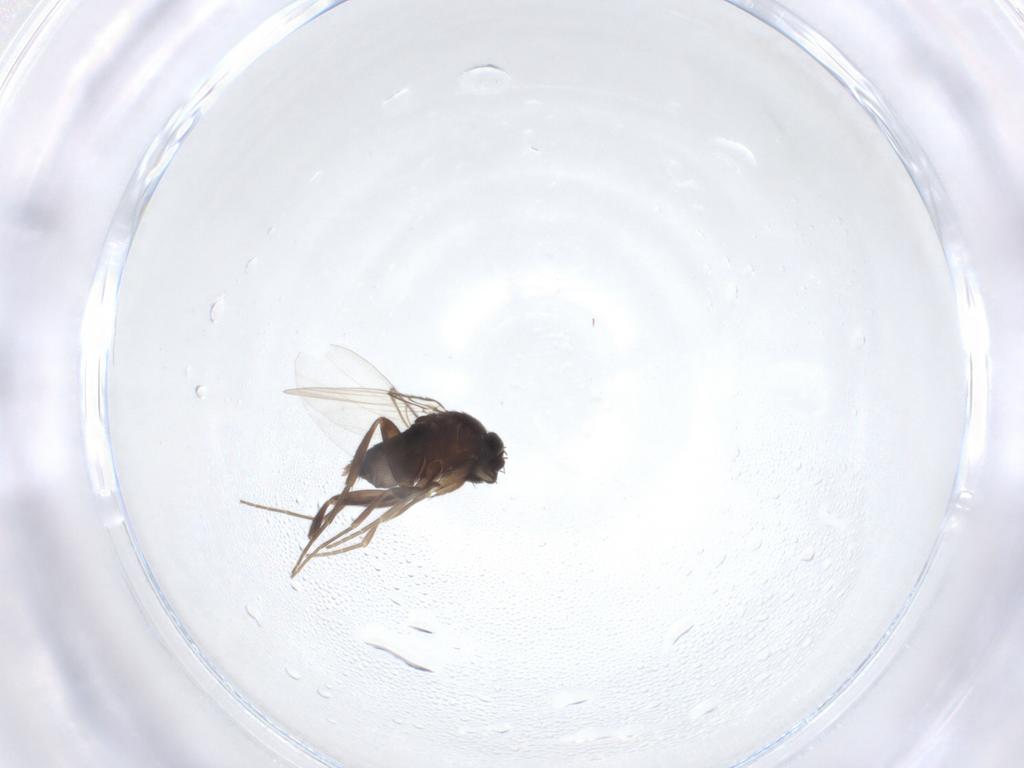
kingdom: Animalia
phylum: Arthropoda
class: Insecta
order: Diptera
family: Phoridae
